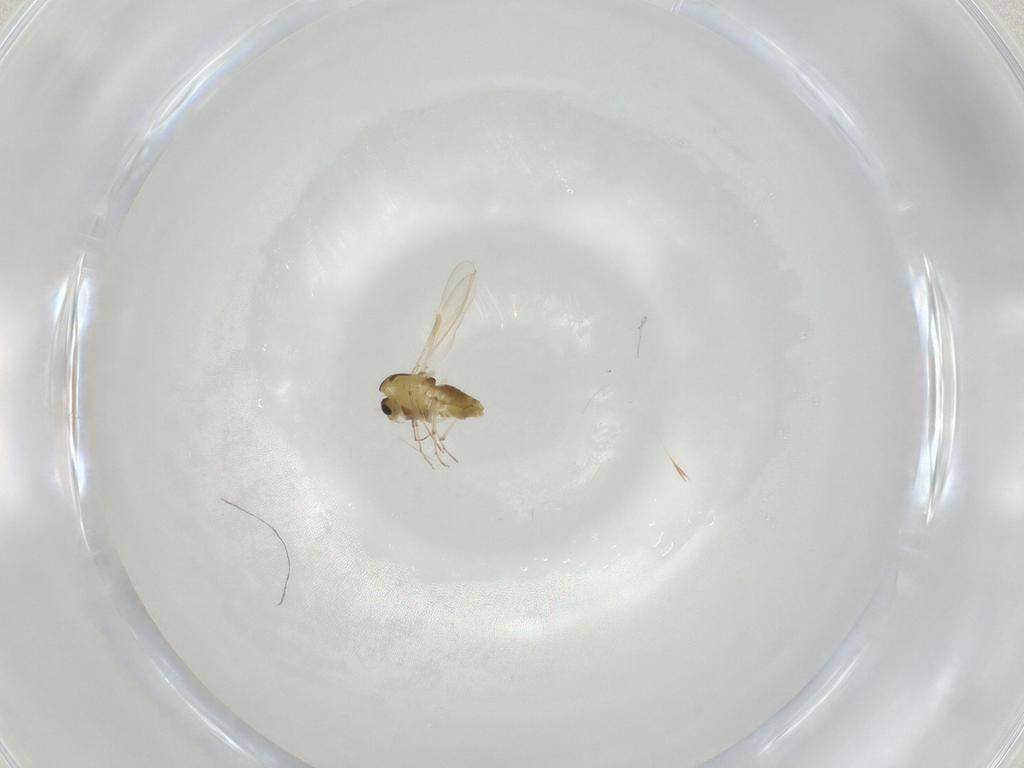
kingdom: Animalia
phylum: Arthropoda
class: Insecta
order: Diptera
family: Chironomidae
